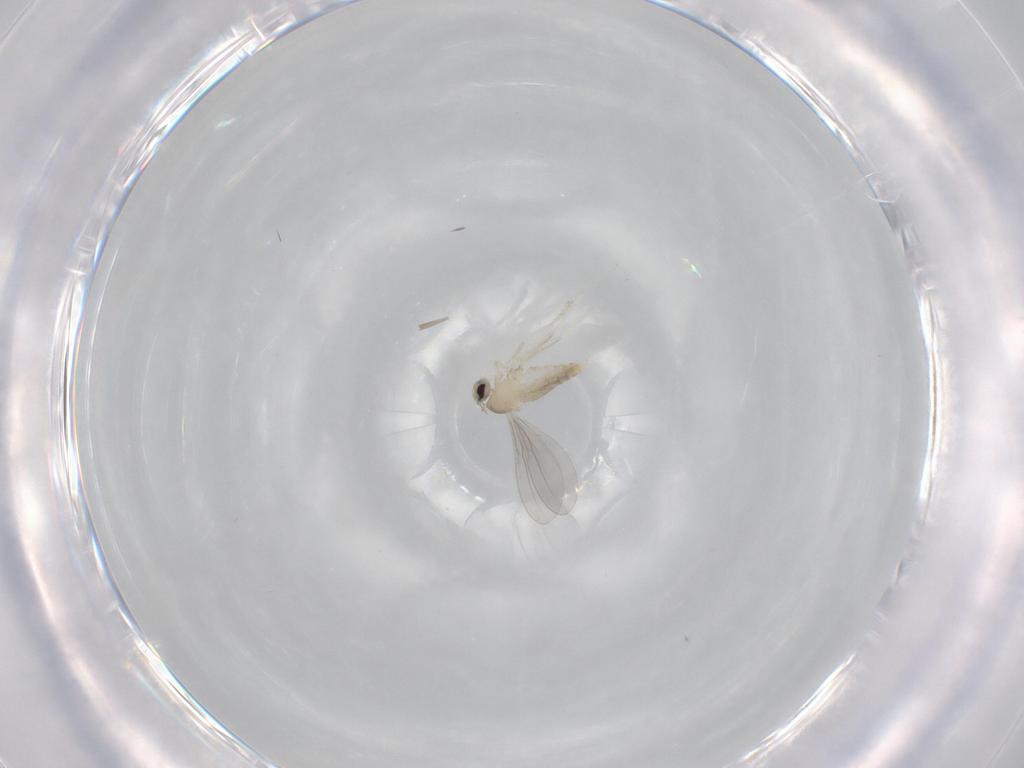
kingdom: Animalia
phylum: Arthropoda
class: Insecta
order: Diptera
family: Cecidomyiidae
